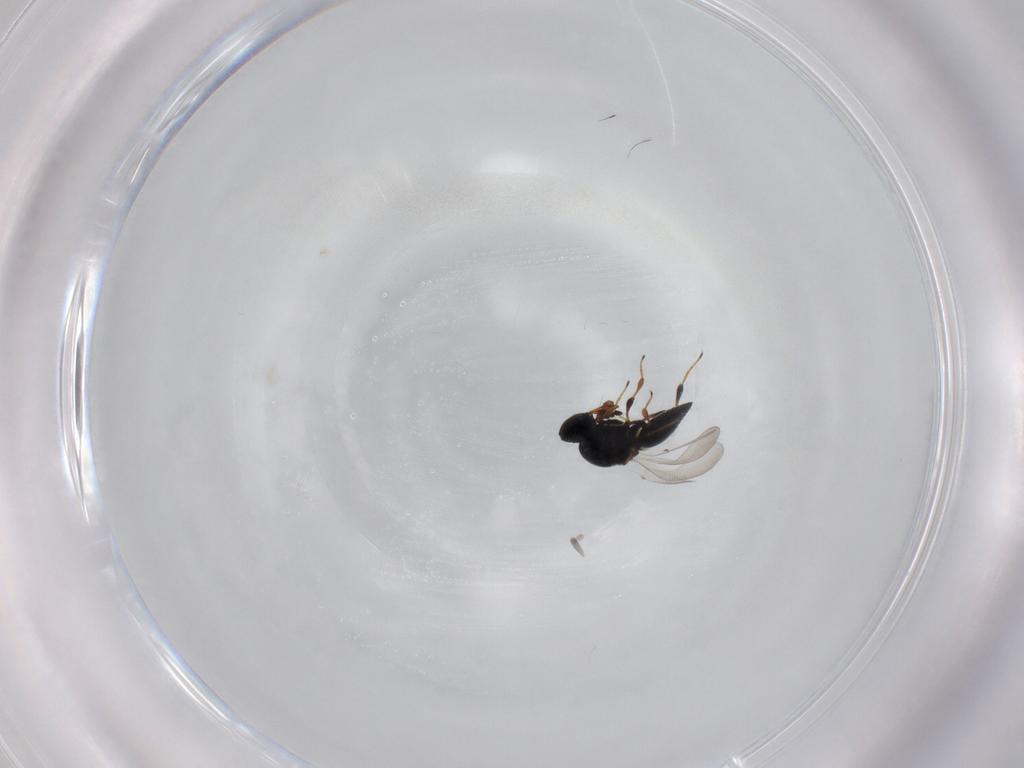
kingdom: Animalia
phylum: Arthropoda
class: Insecta
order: Hymenoptera
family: Platygastridae
